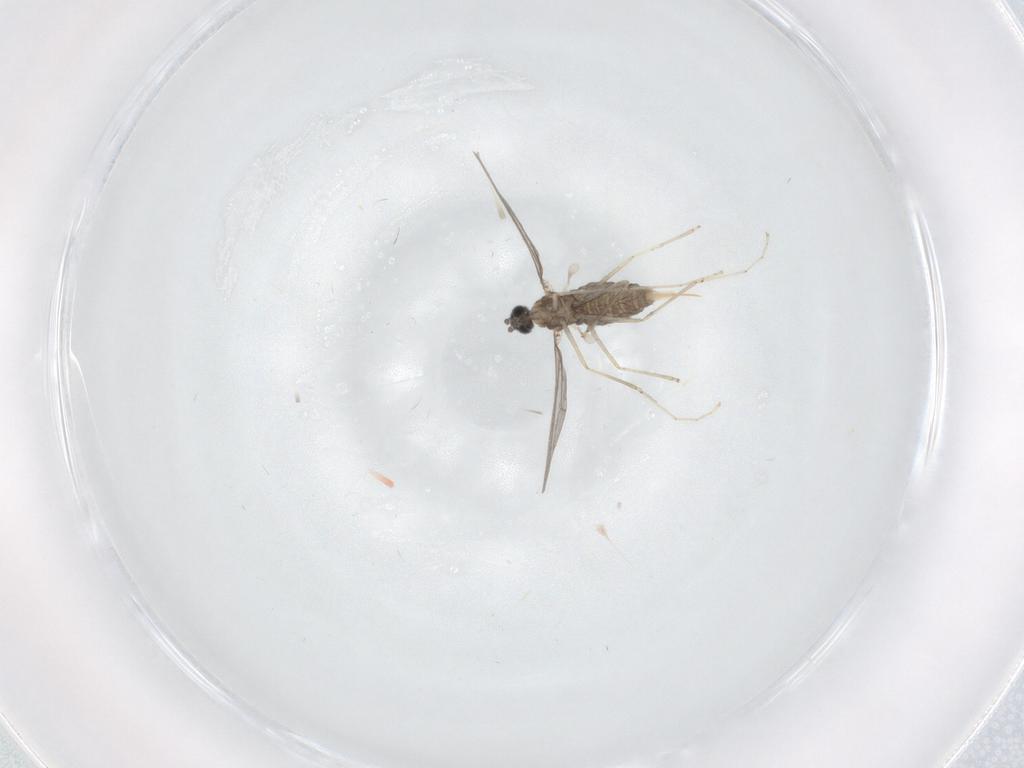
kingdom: Animalia
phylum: Arthropoda
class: Insecta
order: Diptera
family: Cecidomyiidae
